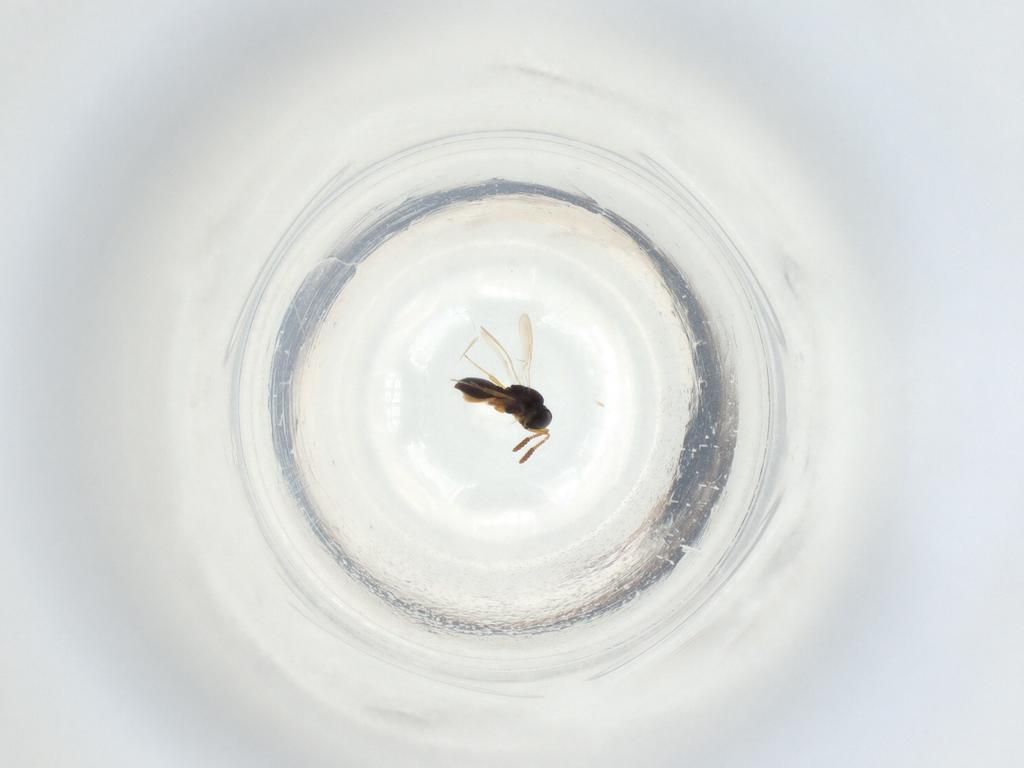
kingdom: Animalia
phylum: Arthropoda
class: Insecta
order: Hymenoptera
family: Scelionidae
